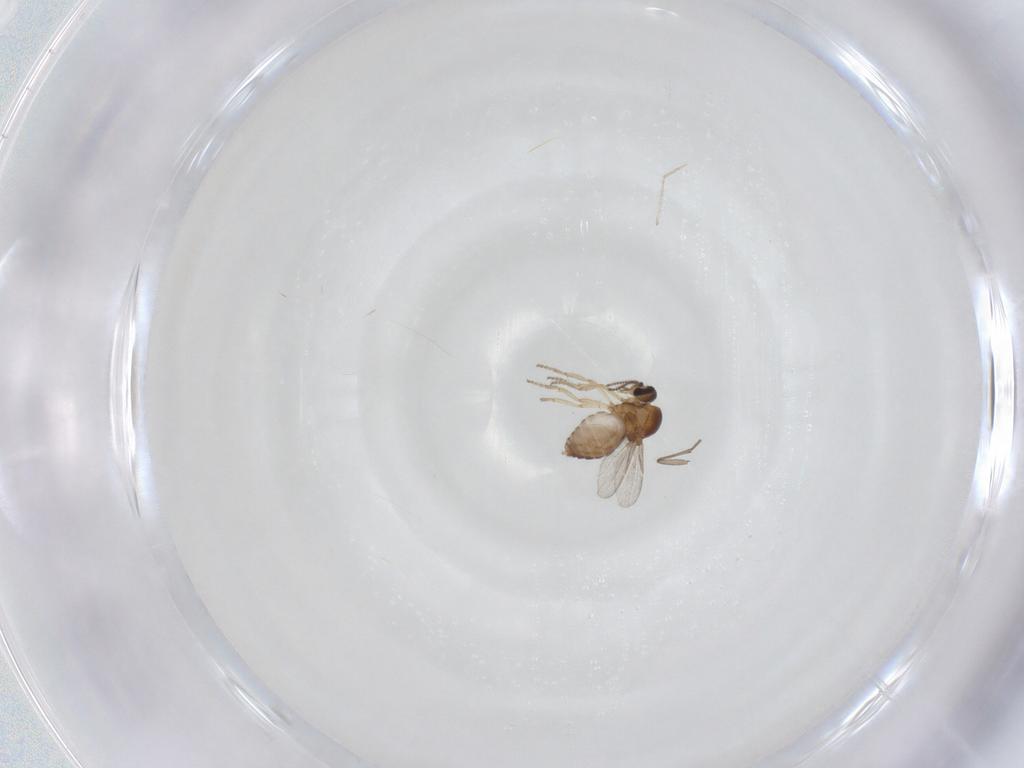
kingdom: Animalia
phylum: Arthropoda
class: Insecta
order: Diptera
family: Ceratopogonidae
